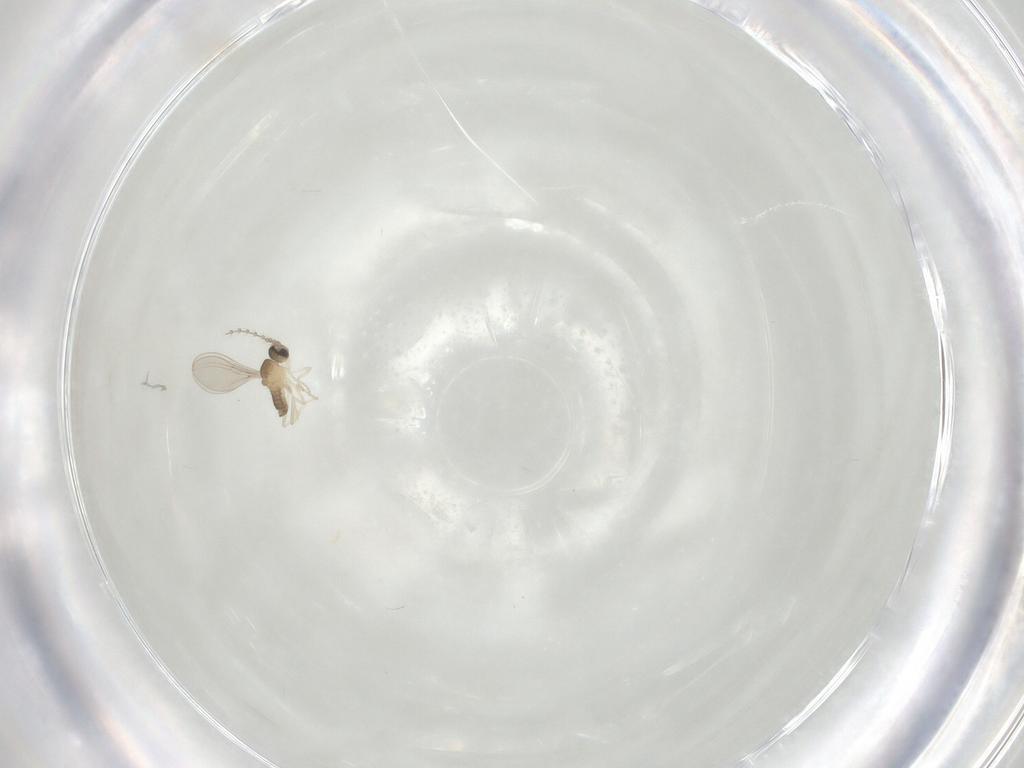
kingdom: Animalia
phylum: Arthropoda
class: Insecta
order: Diptera
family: Cecidomyiidae
